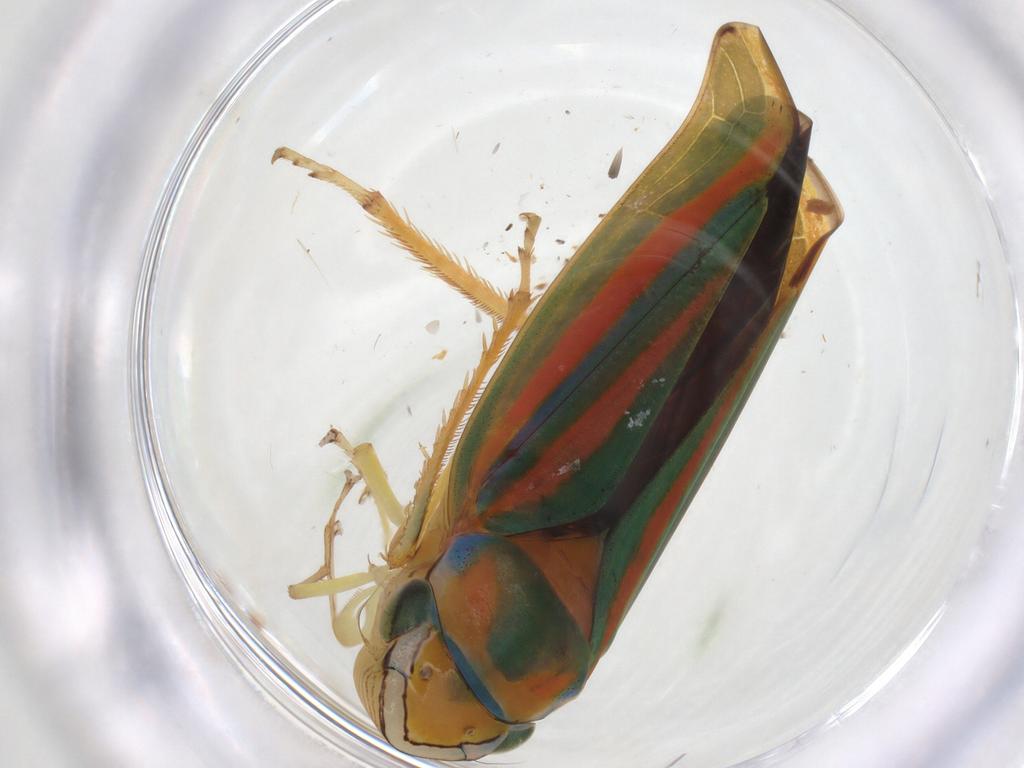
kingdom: Animalia
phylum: Arthropoda
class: Insecta
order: Hemiptera
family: Cicadellidae
